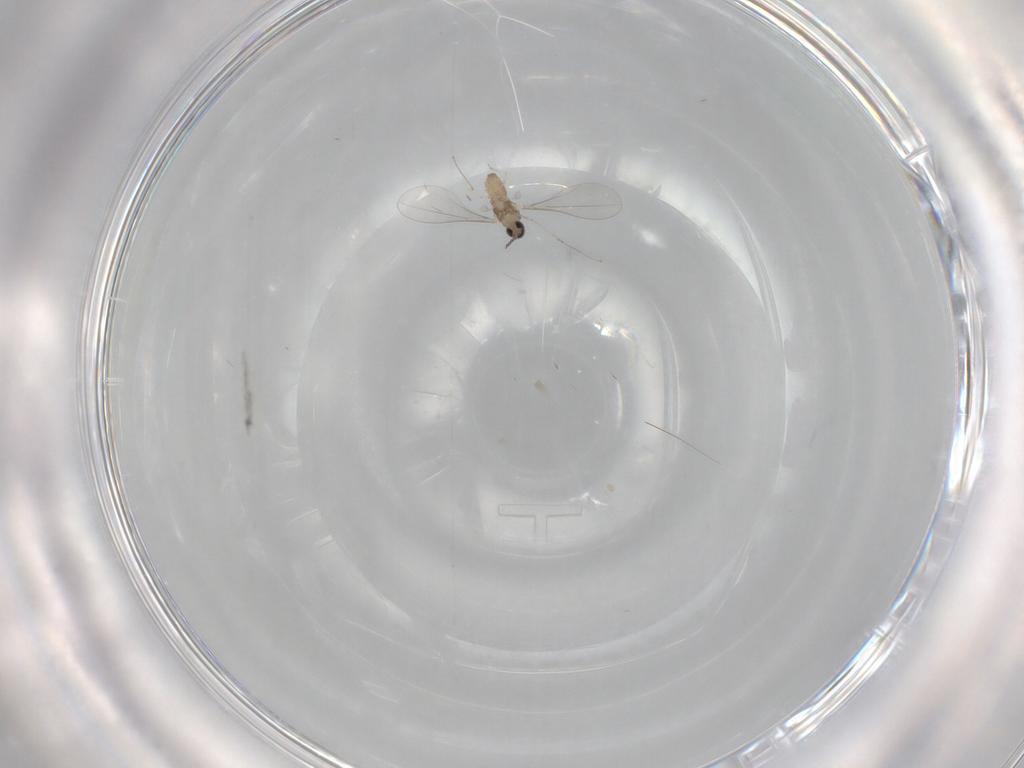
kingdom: Animalia
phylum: Arthropoda
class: Insecta
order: Diptera
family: Cecidomyiidae
